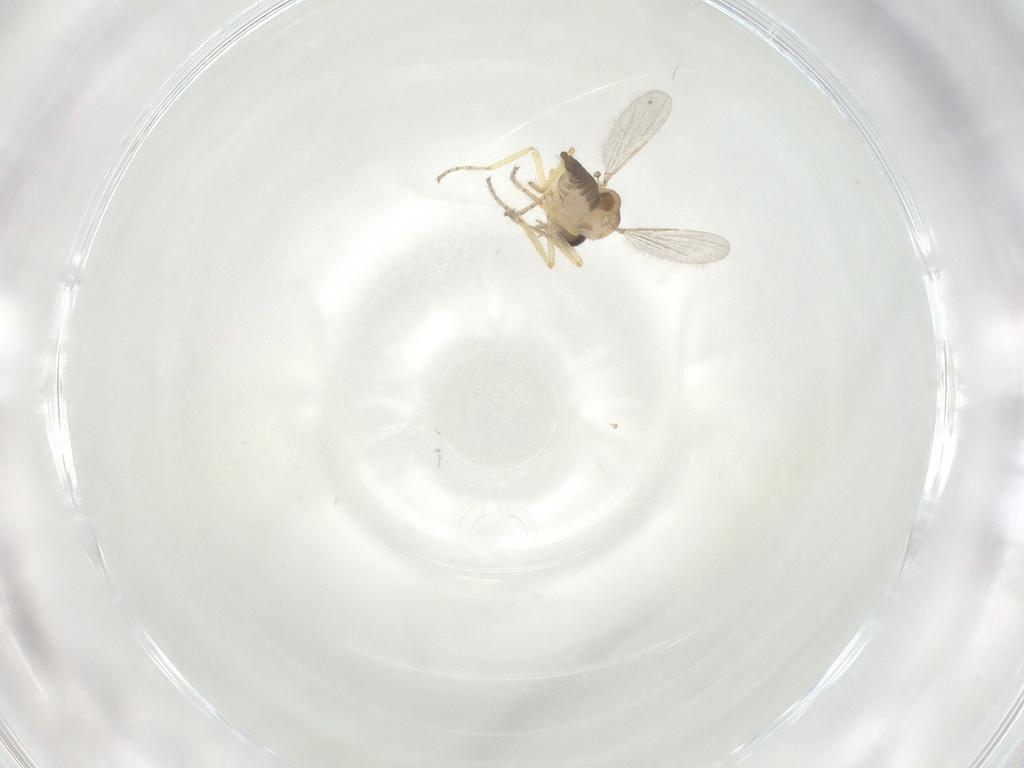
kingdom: Animalia
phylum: Arthropoda
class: Insecta
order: Diptera
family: Ceratopogonidae
